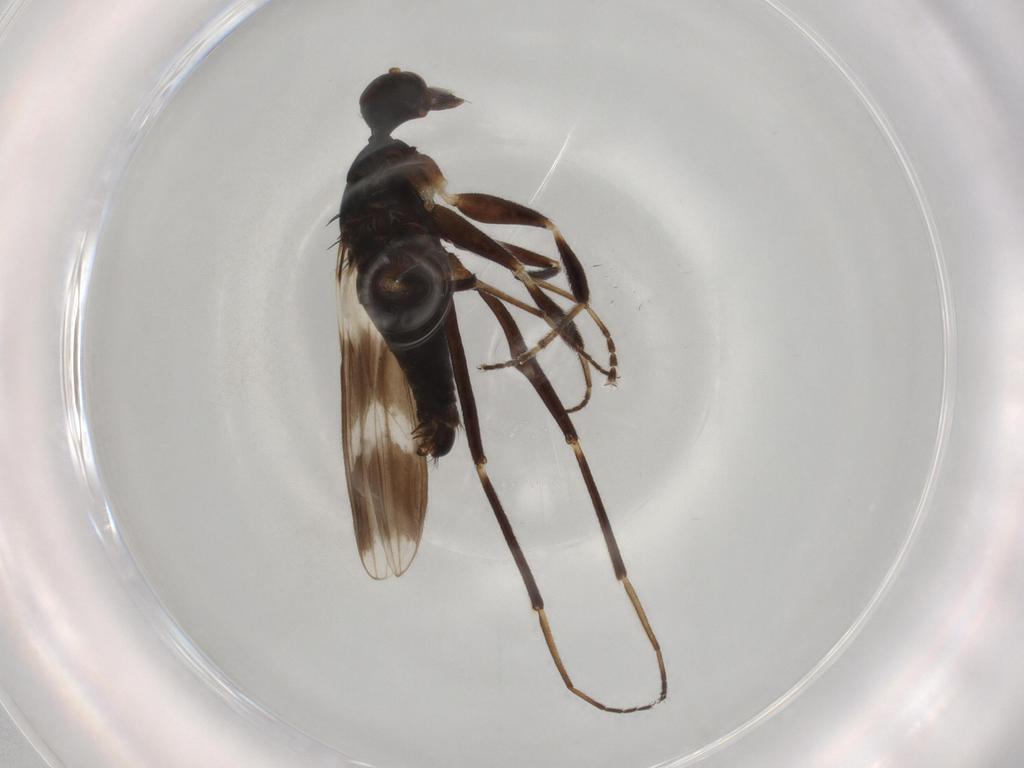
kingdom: Animalia
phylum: Arthropoda
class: Insecta
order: Diptera
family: Hybotidae
